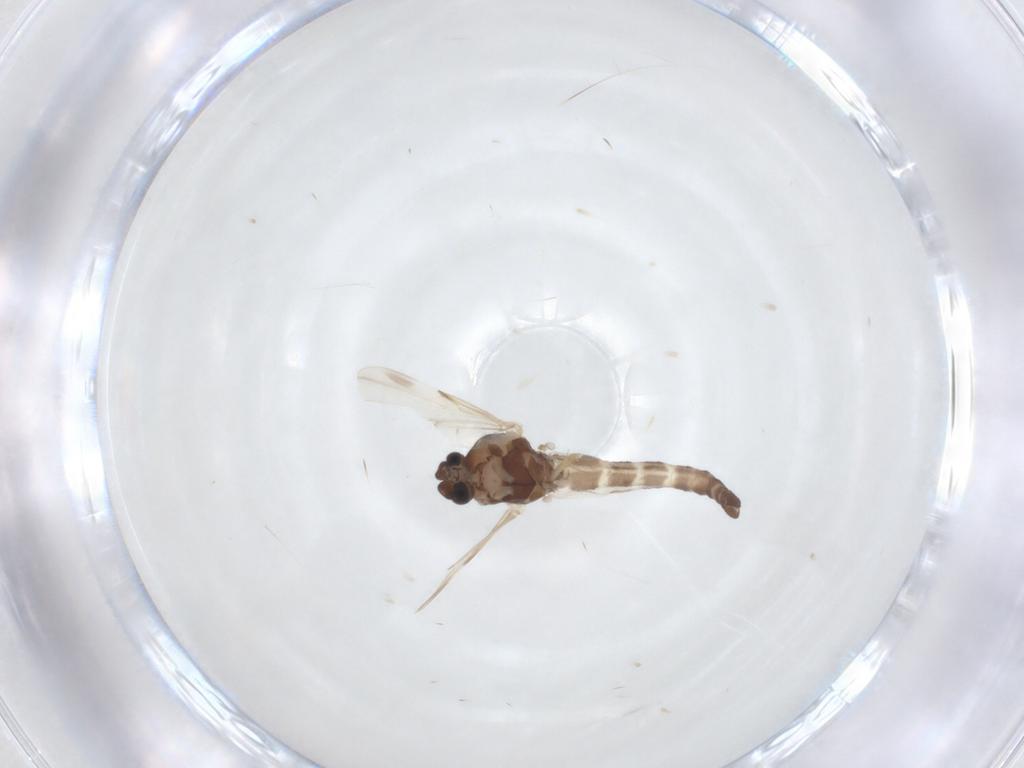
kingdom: Animalia
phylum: Arthropoda
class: Insecta
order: Diptera
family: Ceratopogonidae
